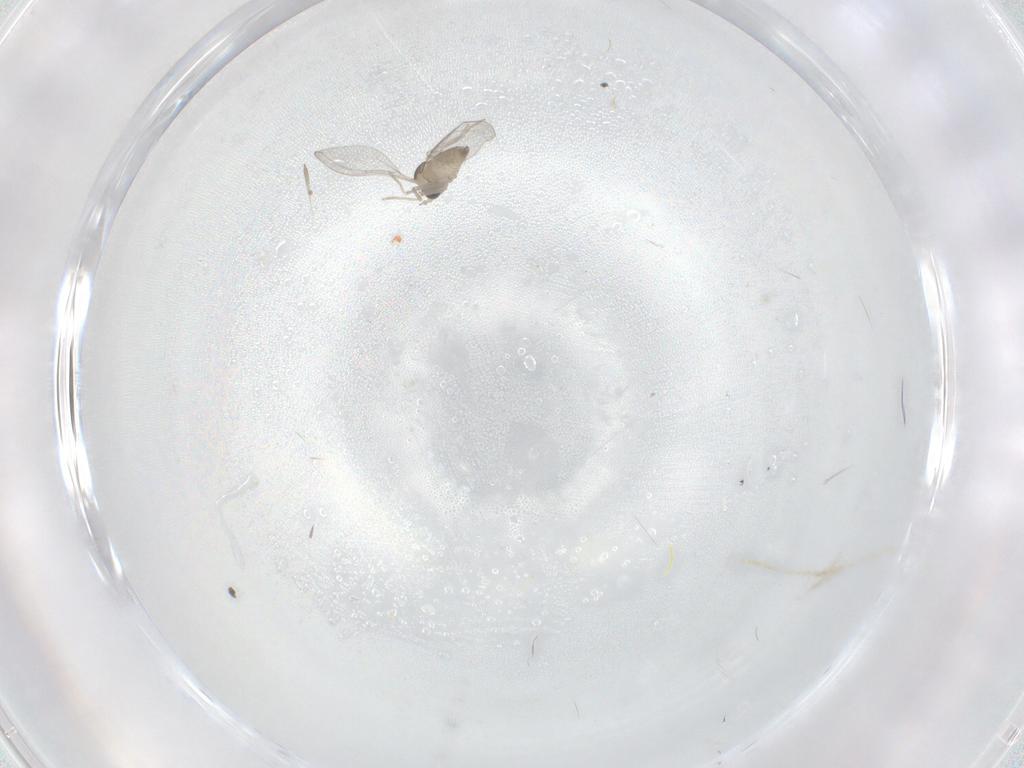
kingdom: Animalia
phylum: Arthropoda
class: Insecta
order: Diptera
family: Cecidomyiidae
